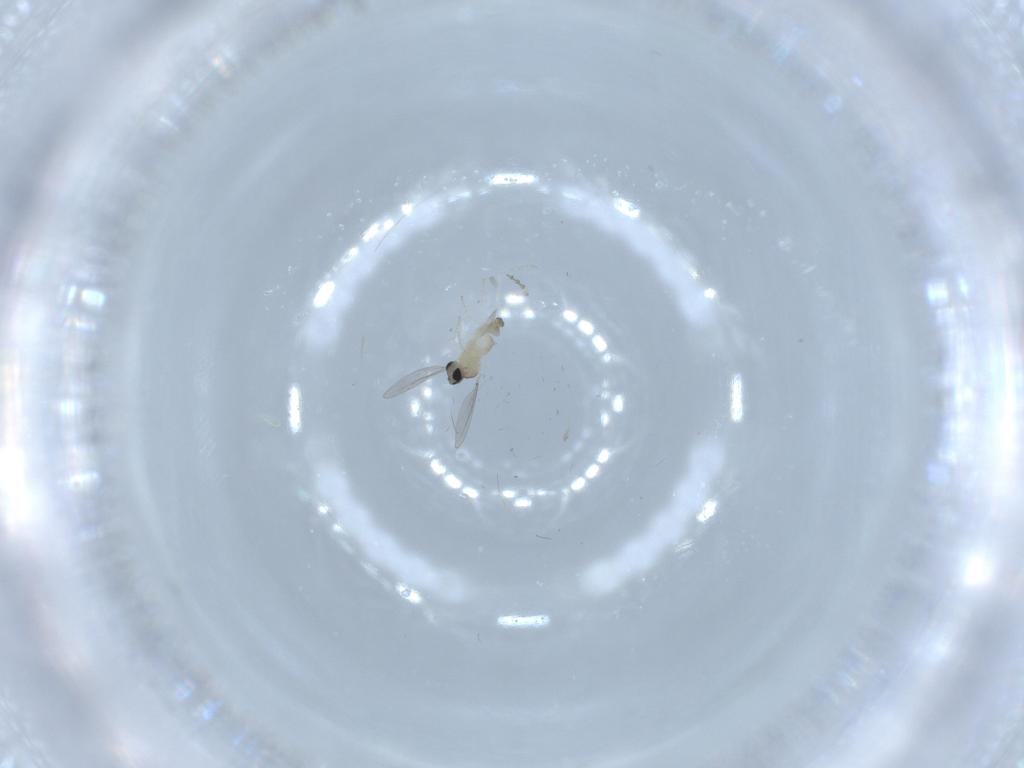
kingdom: Animalia
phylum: Arthropoda
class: Insecta
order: Diptera
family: Cecidomyiidae
